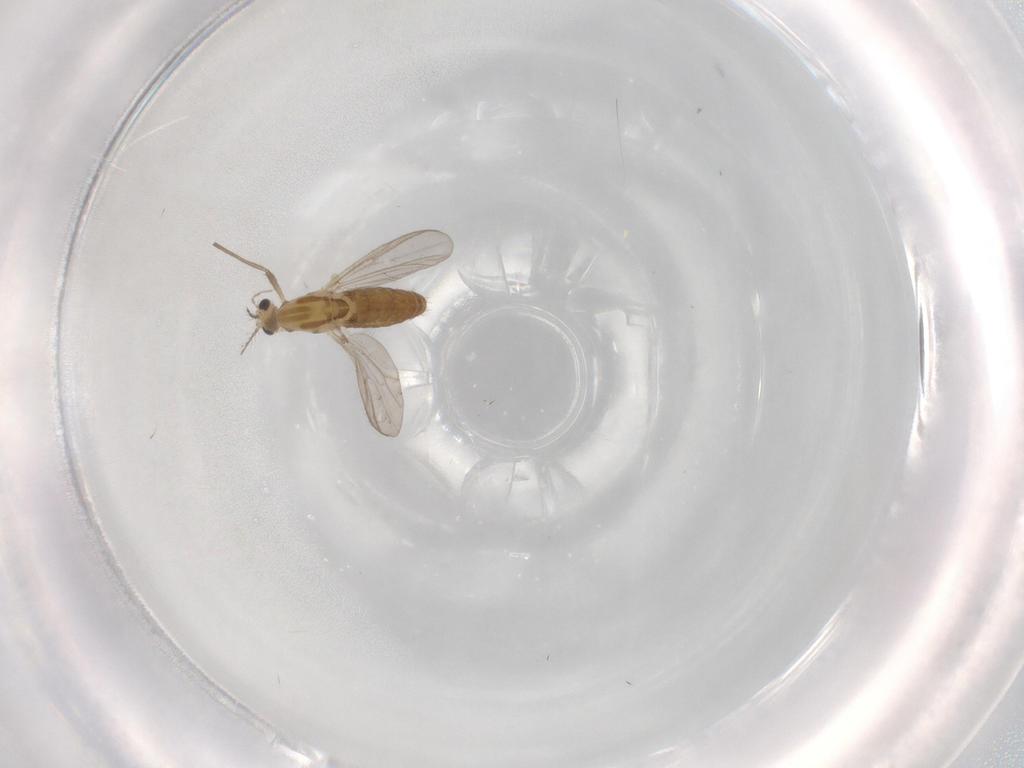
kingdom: Animalia
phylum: Arthropoda
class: Insecta
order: Diptera
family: Chironomidae
